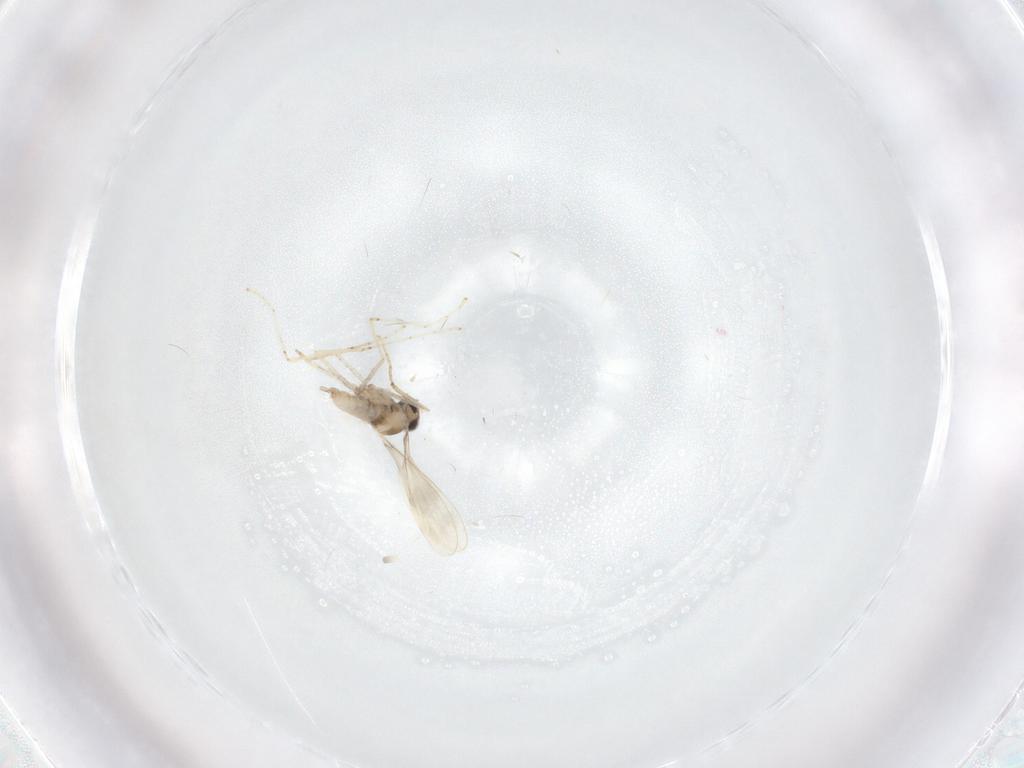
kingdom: Animalia
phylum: Arthropoda
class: Insecta
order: Diptera
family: Cecidomyiidae
